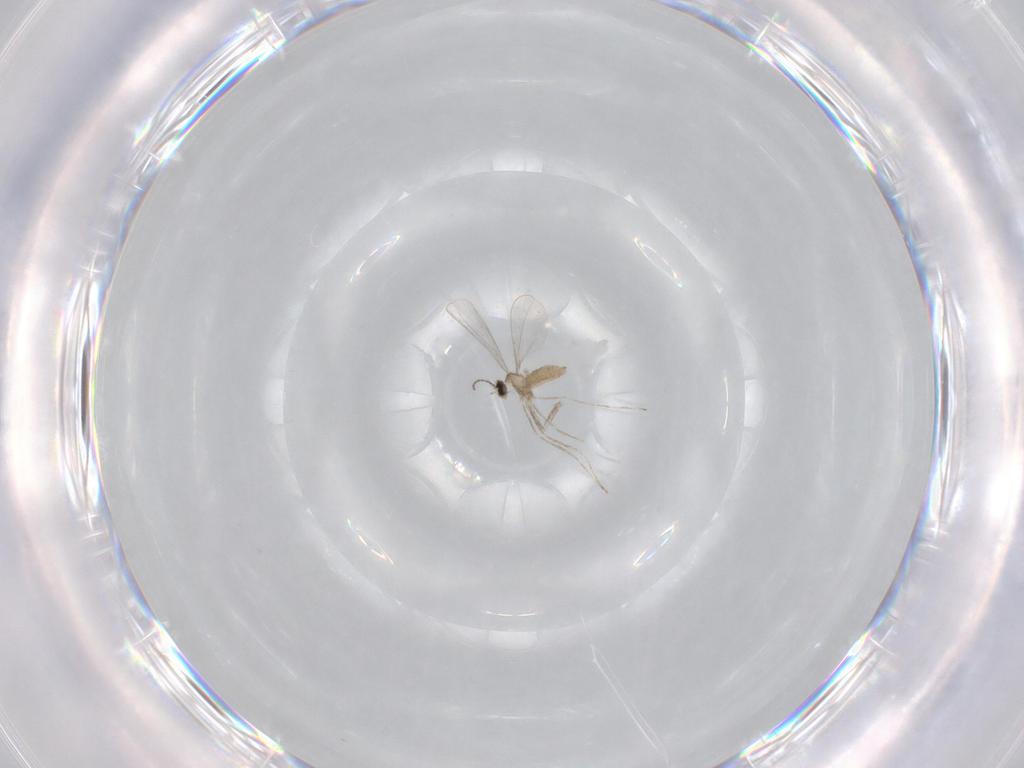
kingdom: Animalia
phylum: Arthropoda
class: Insecta
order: Diptera
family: Cecidomyiidae
